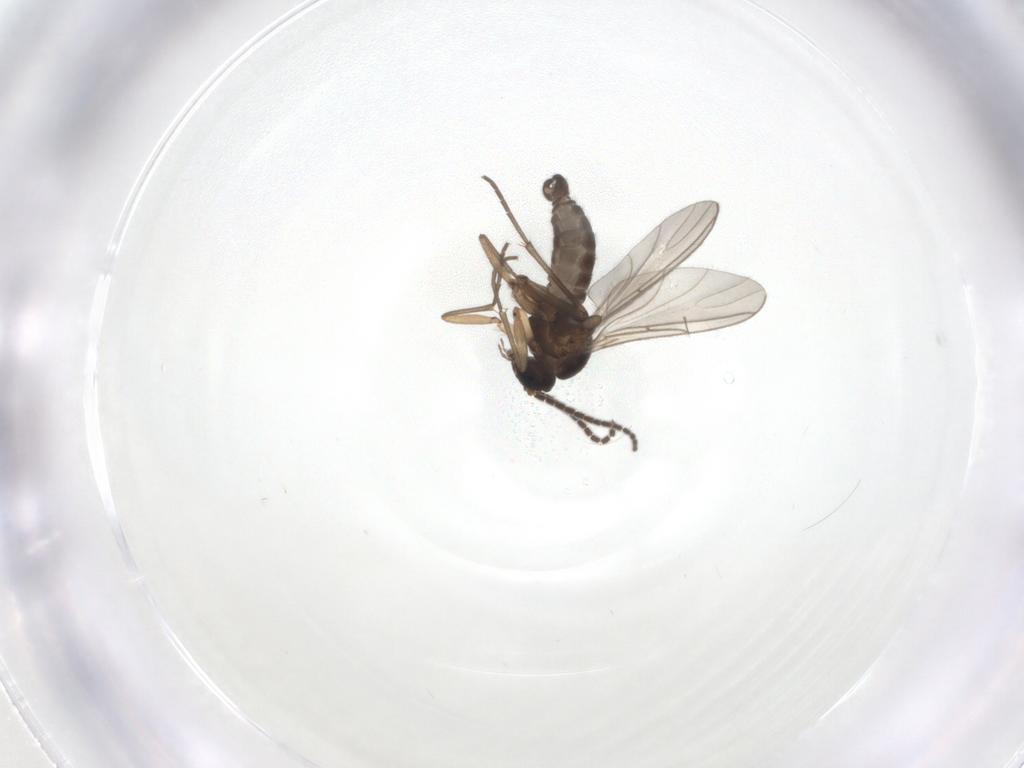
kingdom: Animalia
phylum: Arthropoda
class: Insecta
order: Diptera
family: Sciaridae
